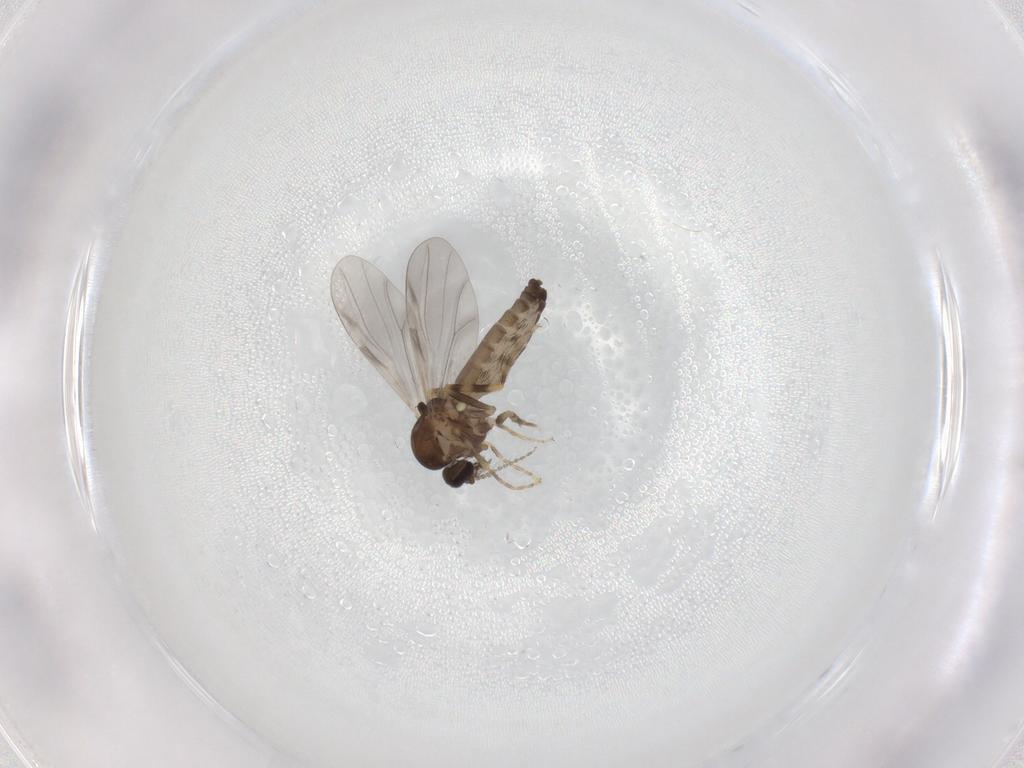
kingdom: Animalia
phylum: Arthropoda
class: Insecta
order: Diptera
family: Ceratopogonidae
